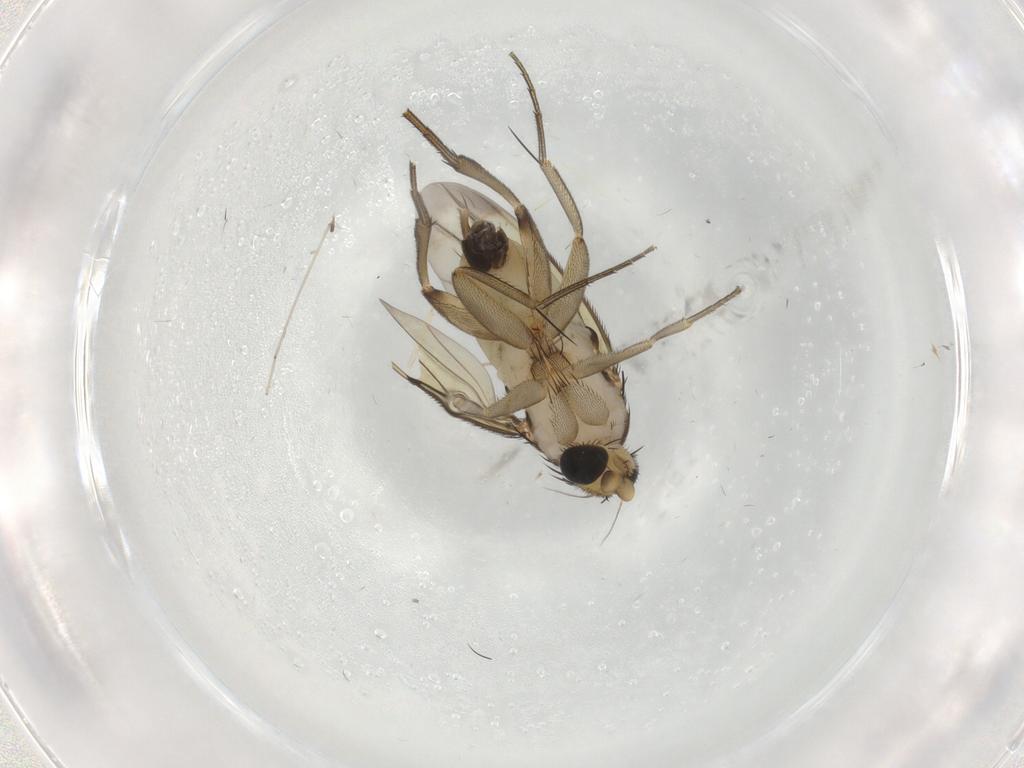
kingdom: Animalia
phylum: Arthropoda
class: Insecta
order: Diptera
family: Phoridae
